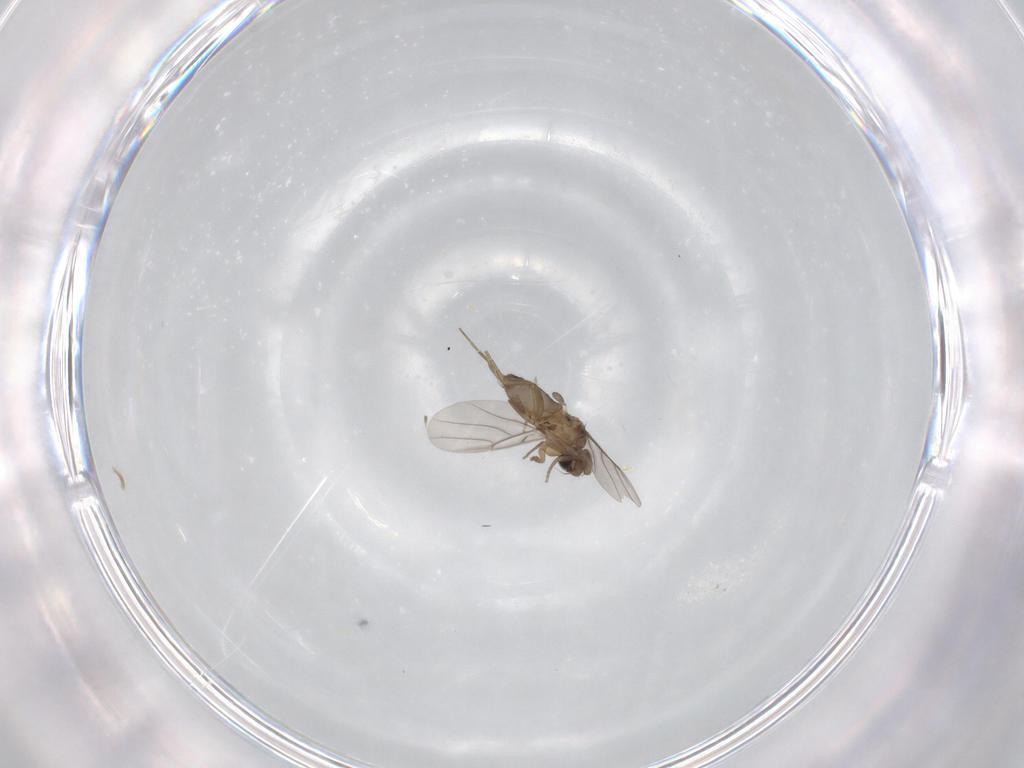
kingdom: Animalia
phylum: Arthropoda
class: Insecta
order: Diptera
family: Phoridae
